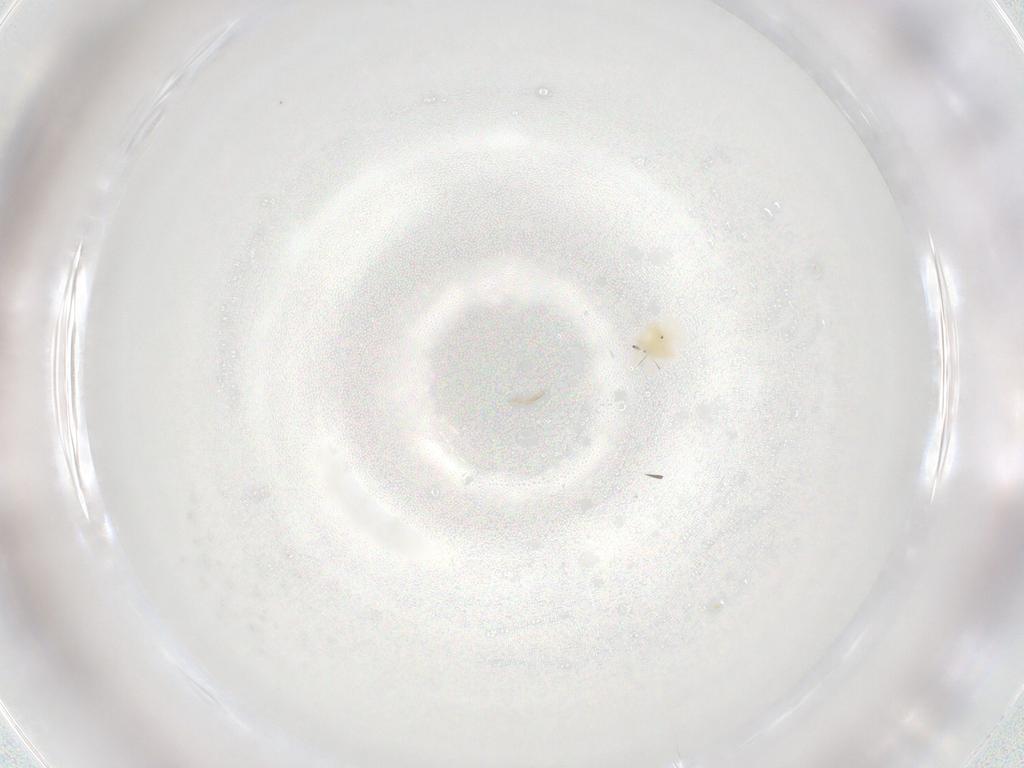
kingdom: Animalia
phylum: Arthropoda
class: Arachnida
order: Trombidiformes
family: Anystidae
